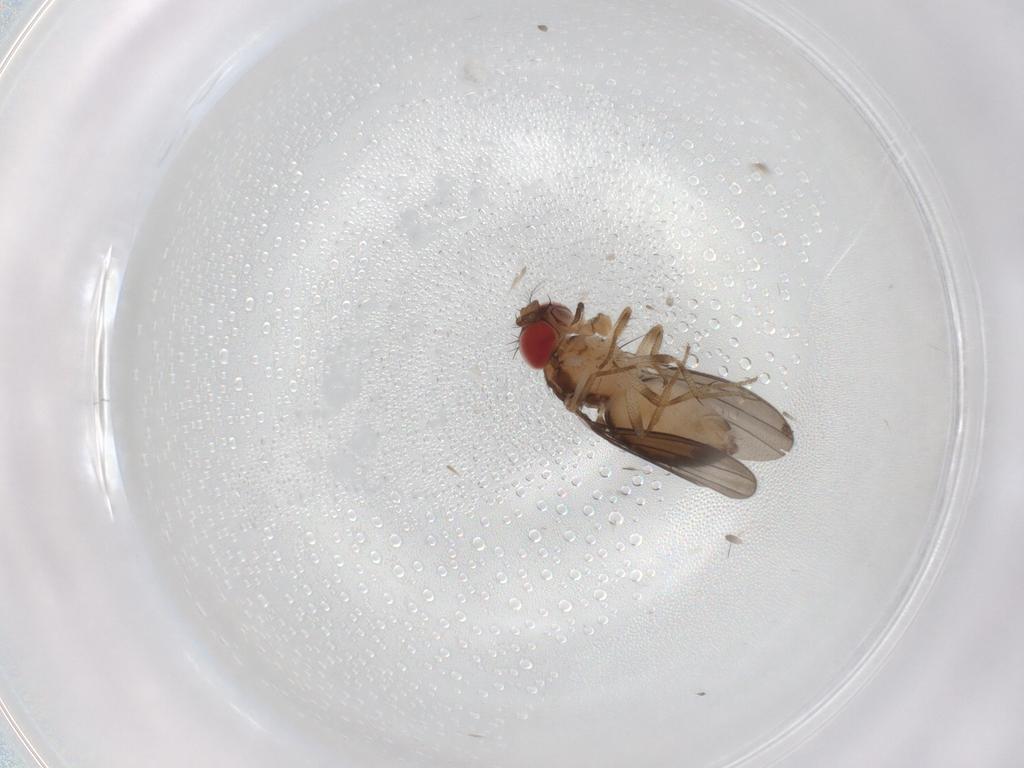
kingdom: Animalia
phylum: Arthropoda
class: Insecta
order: Diptera
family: Drosophilidae
